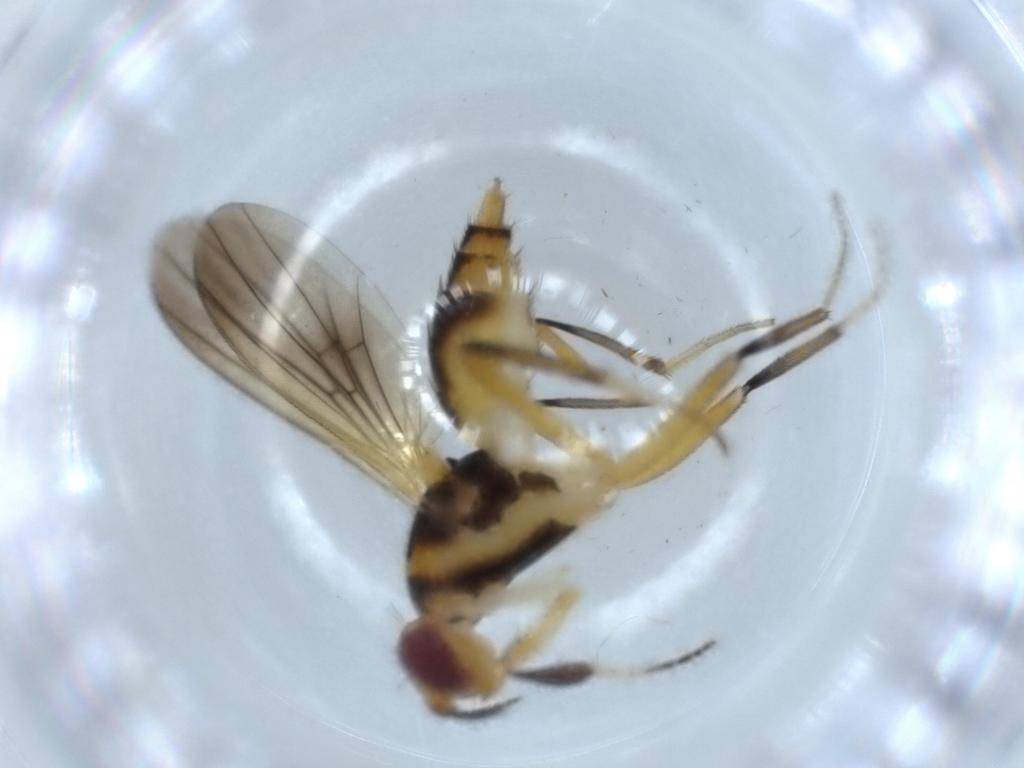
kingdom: Animalia
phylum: Arthropoda
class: Insecta
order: Diptera
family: Clusiidae
